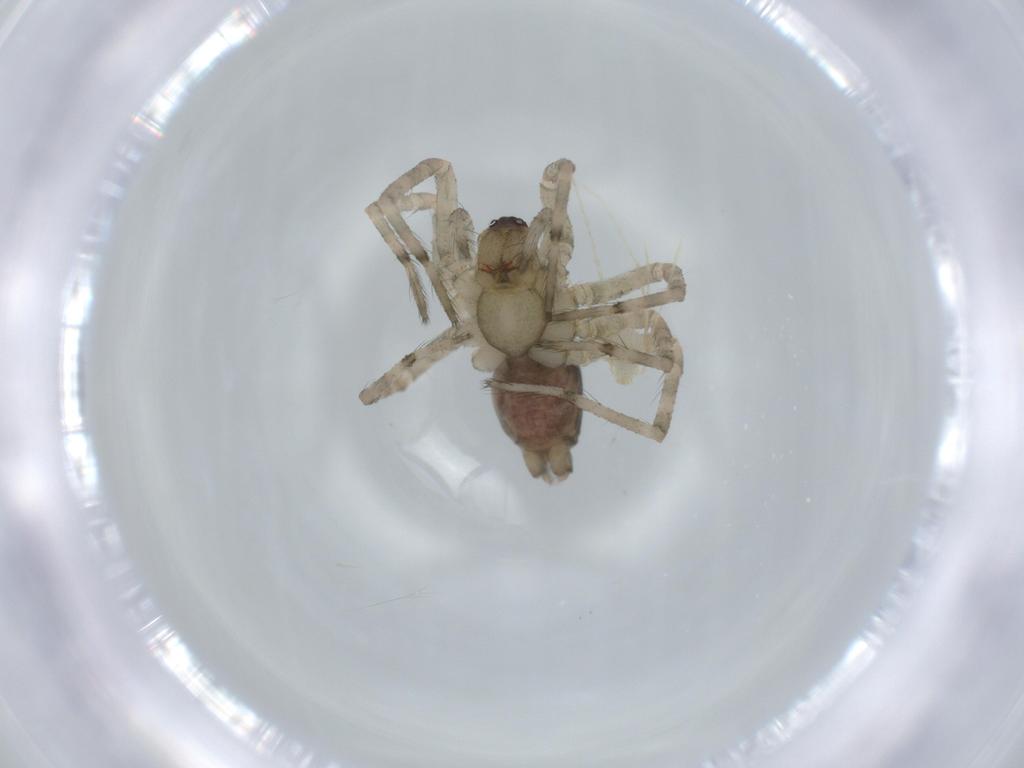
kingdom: Animalia
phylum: Arthropoda
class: Arachnida
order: Araneae
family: Agelenidae
